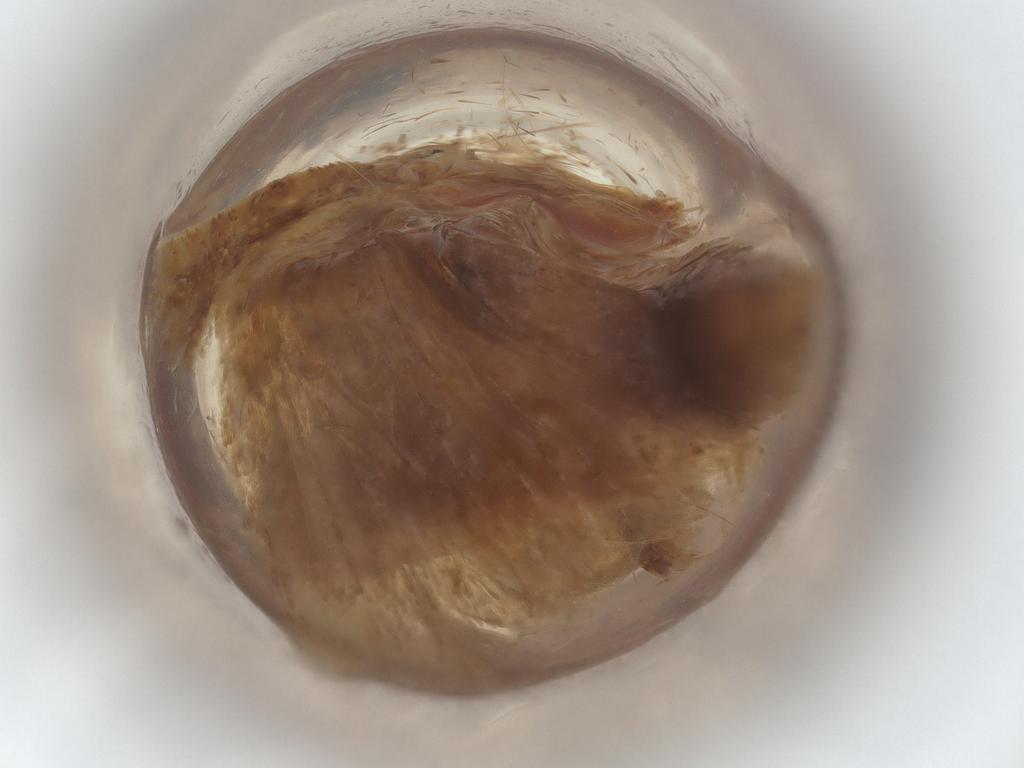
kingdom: Animalia
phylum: Arthropoda
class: Insecta
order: Lepidoptera
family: Pyralidae
